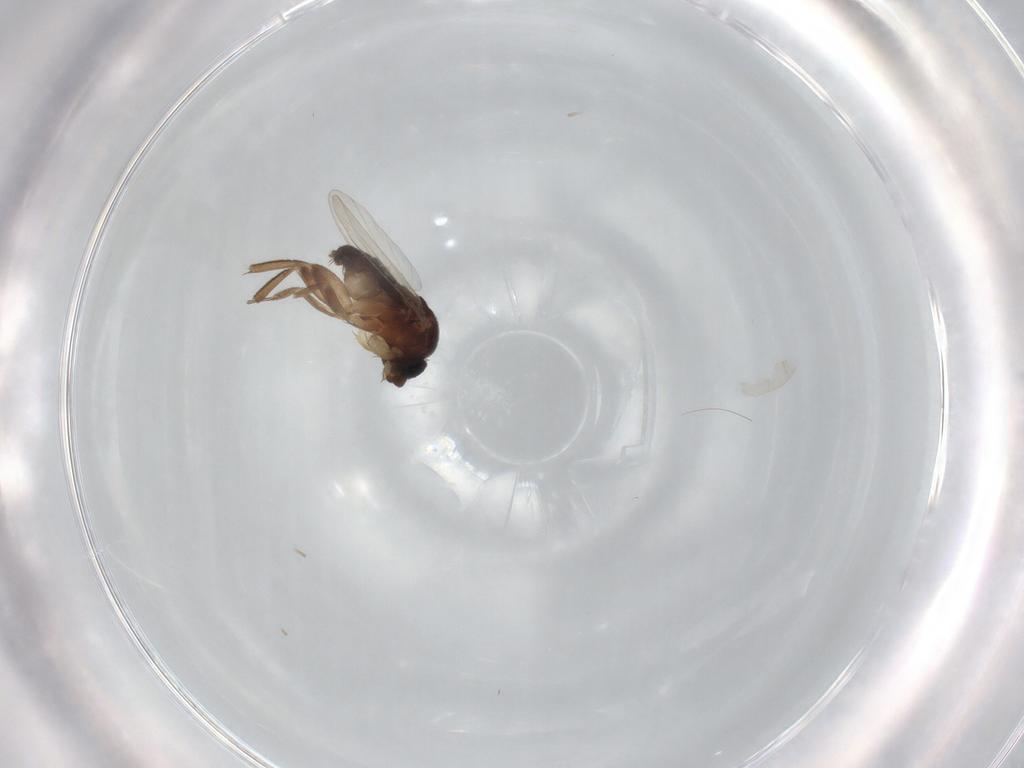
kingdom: Animalia
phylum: Arthropoda
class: Insecta
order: Diptera
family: Phoridae
